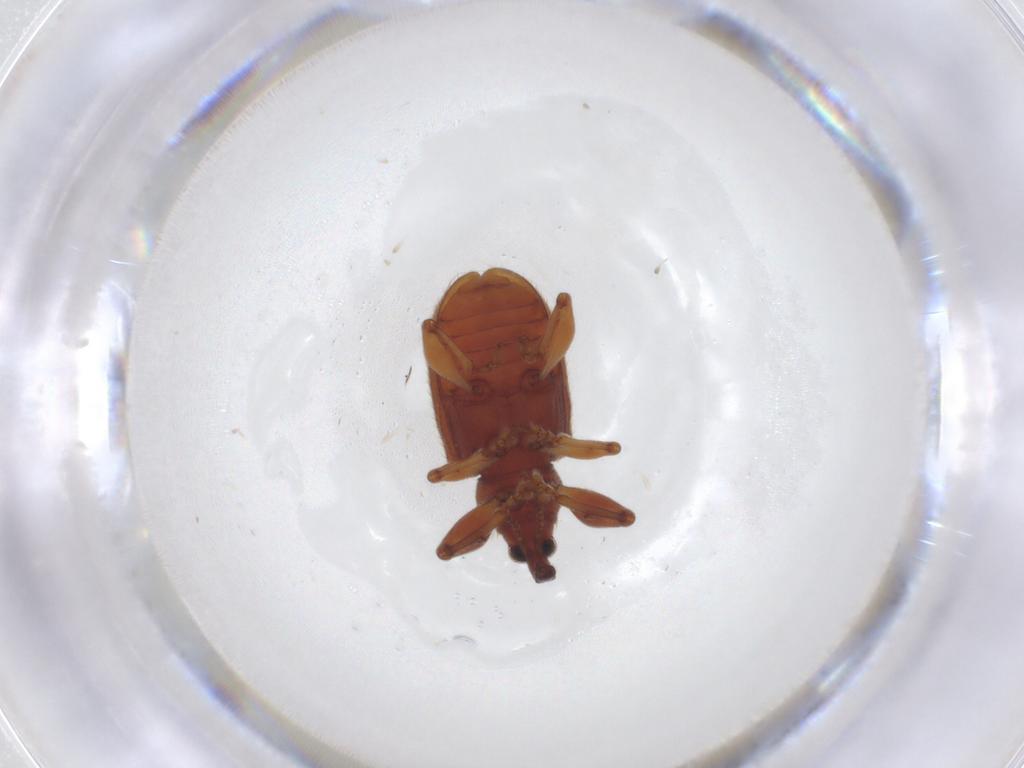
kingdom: Animalia
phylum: Arthropoda
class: Insecta
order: Coleoptera
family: Curculionidae
